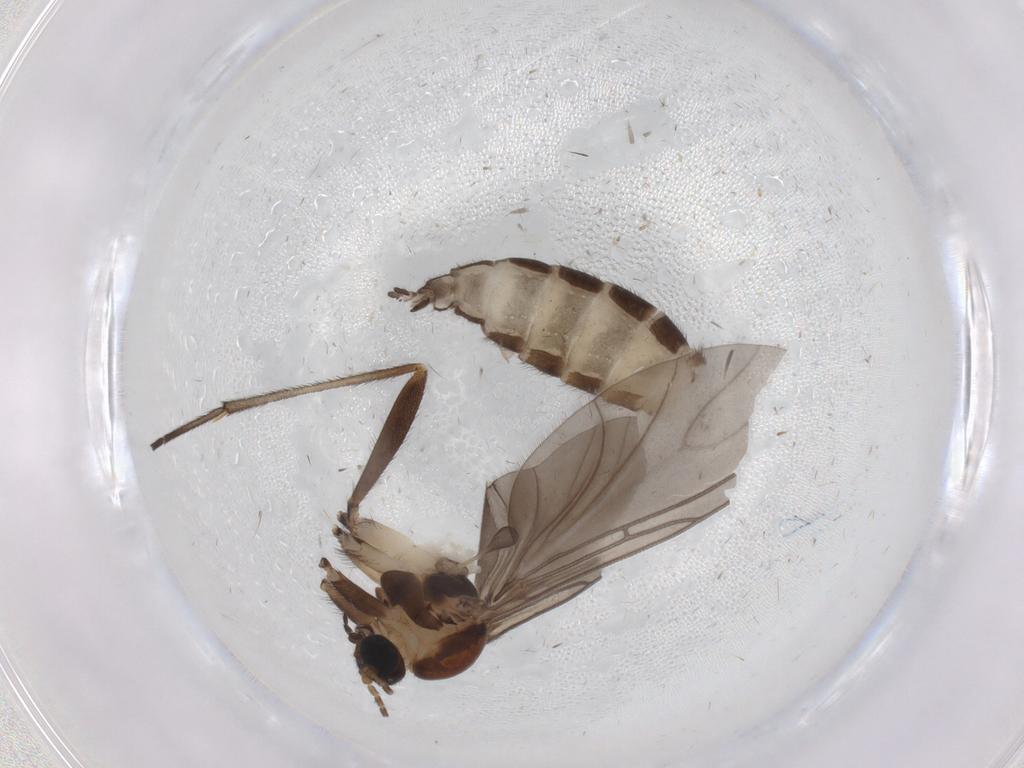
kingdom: Animalia
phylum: Arthropoda
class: Insecta
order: Diptera
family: Sciaridae
